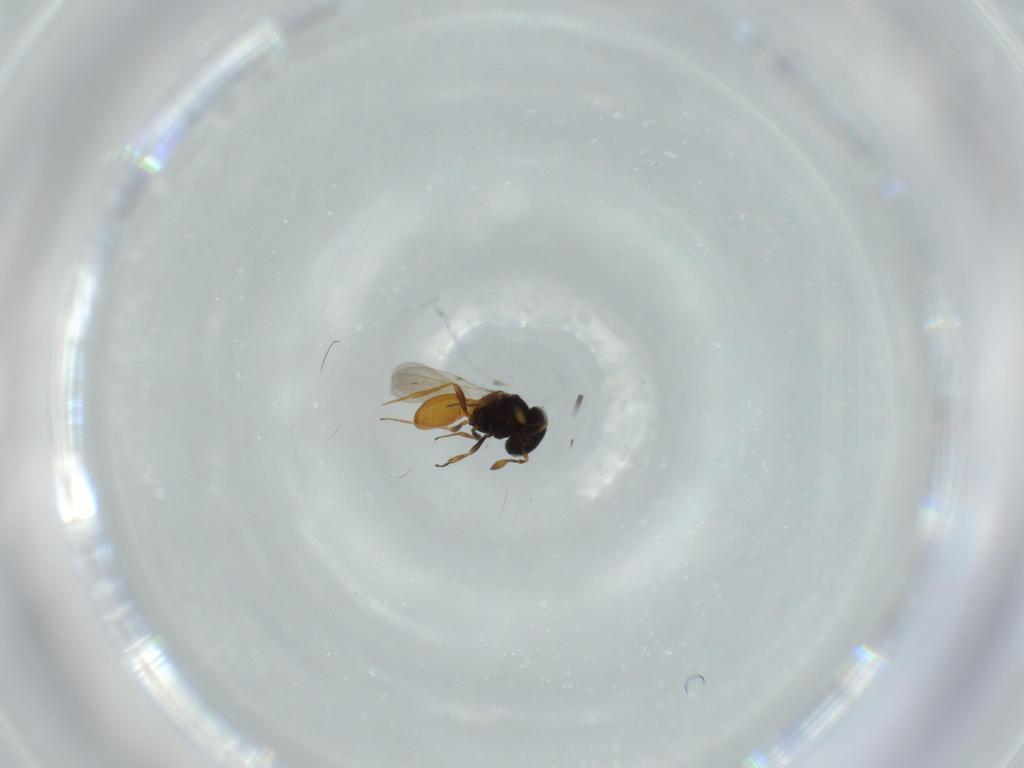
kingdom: Animalia
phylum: Arthropoda
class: Insecta
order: Hymenoptera
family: Scelionidae
